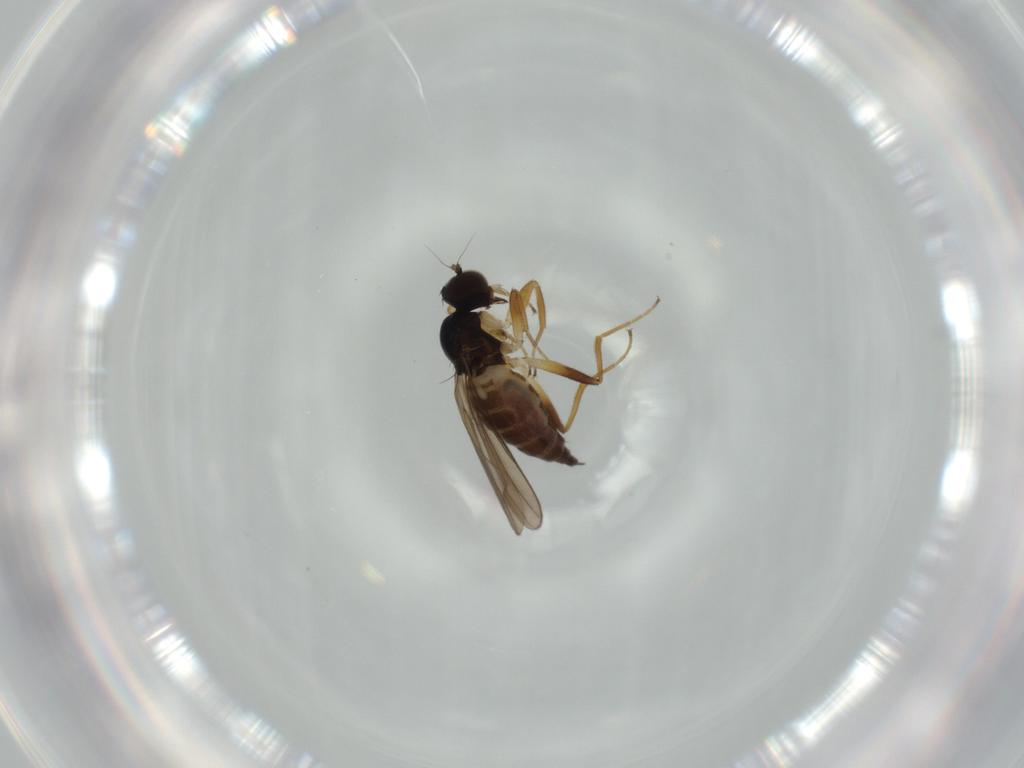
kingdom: Animalia
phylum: Arthropoda
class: Insecta
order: Diptera
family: Hybotidae
